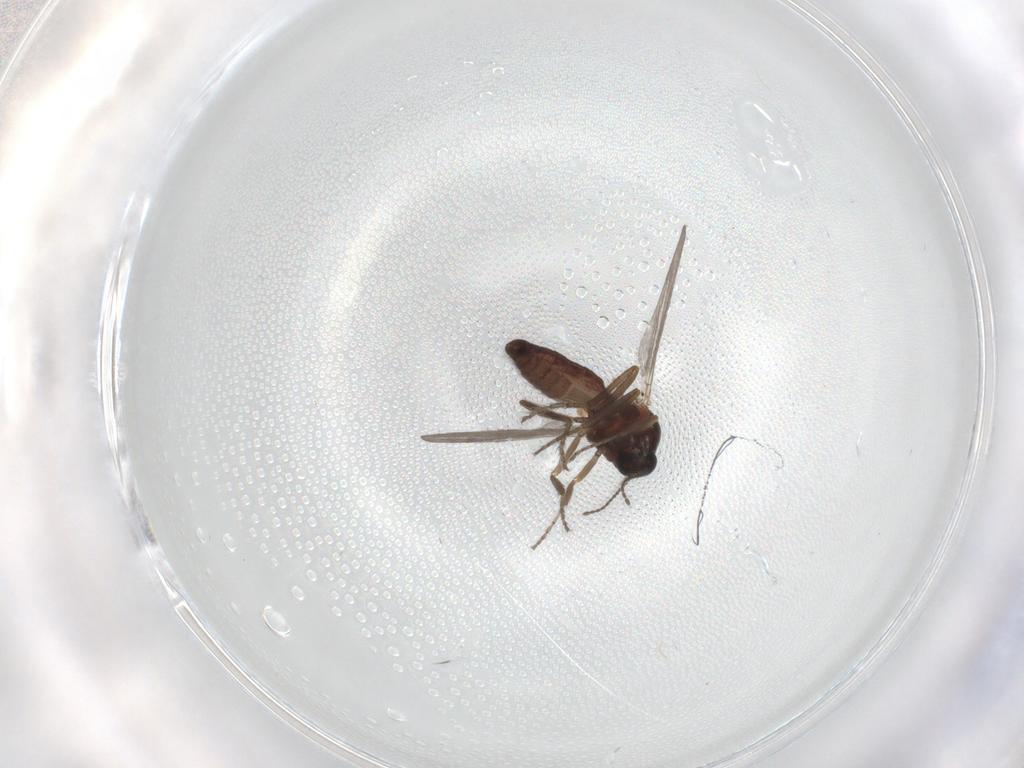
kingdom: Animalia
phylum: Arthropoda
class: Insecta
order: Diptera
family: Ceratopogonidae
